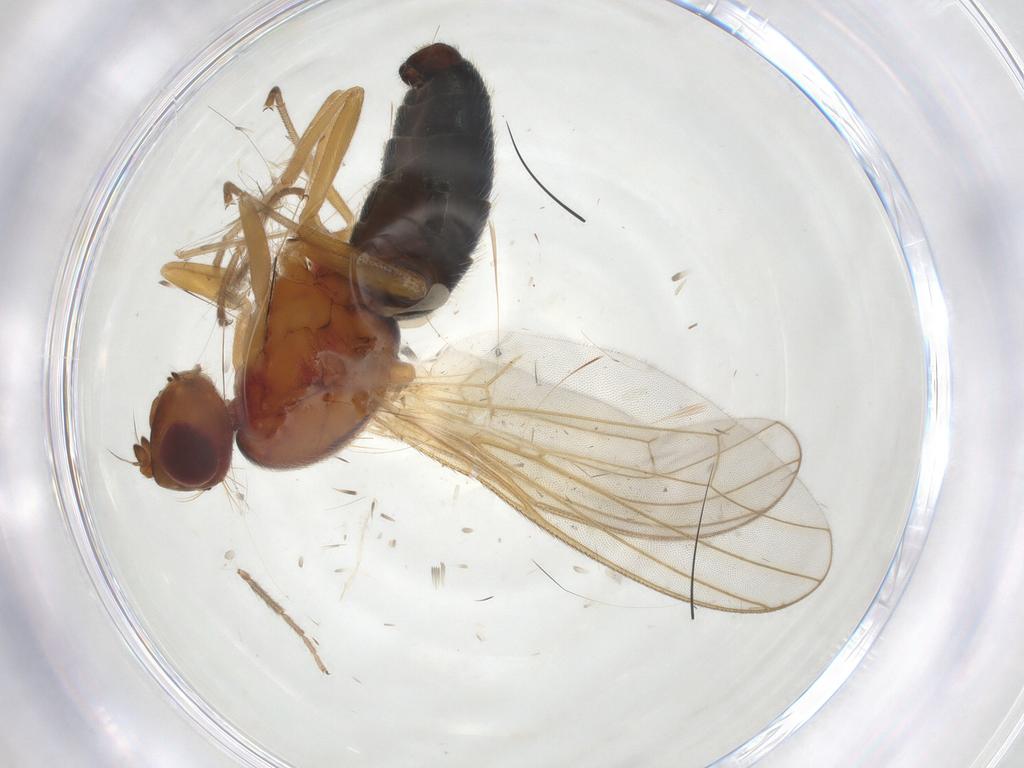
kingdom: Animalia
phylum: Arthropoda
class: Insecta
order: Diptera
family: Psilidae
